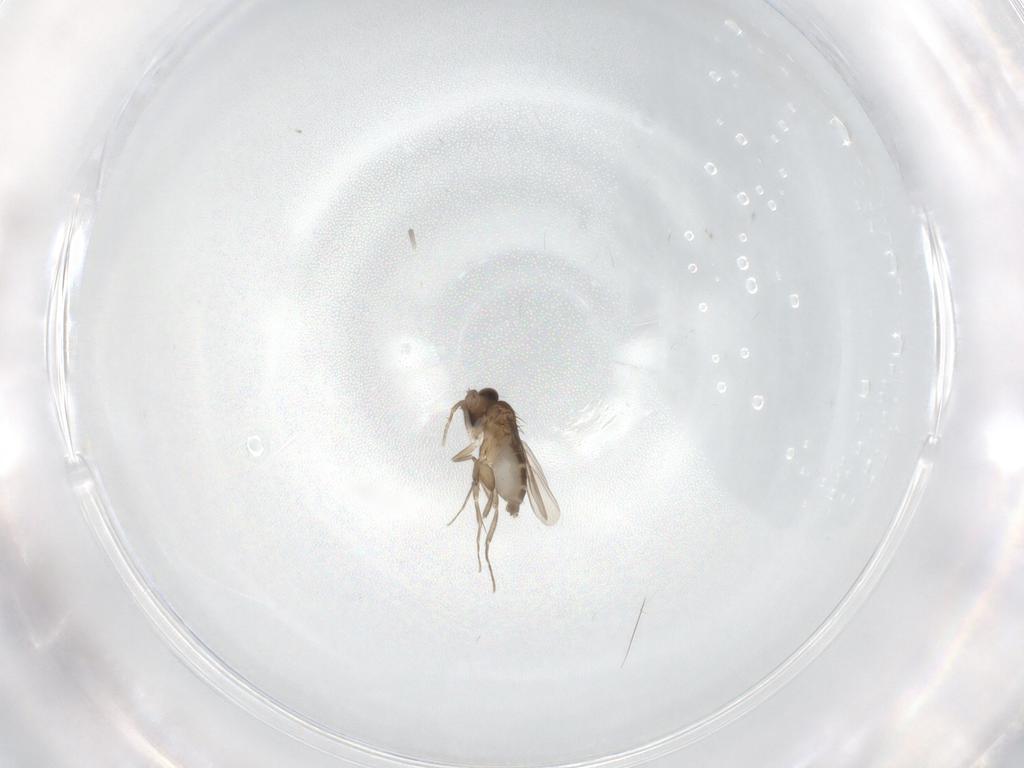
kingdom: Animalia
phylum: Arthropoda
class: Insecta
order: Diptera
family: Phoridae
